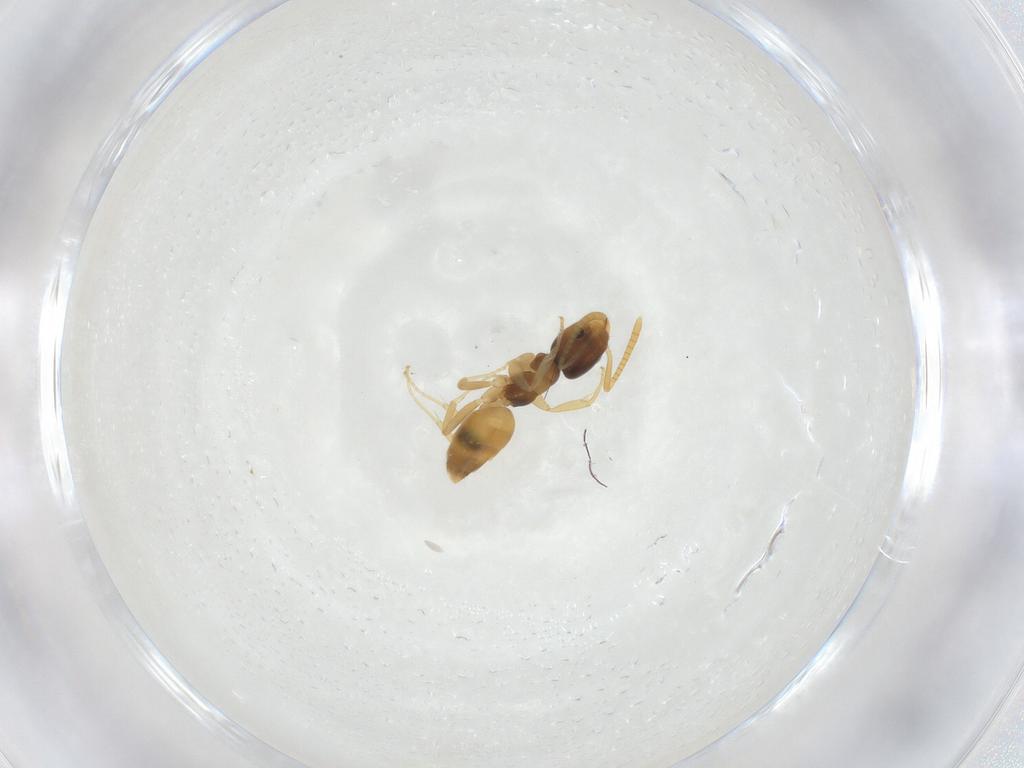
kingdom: Animalia
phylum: Arthropoda
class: Insecta
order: Hymenoptera
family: Formicidae
